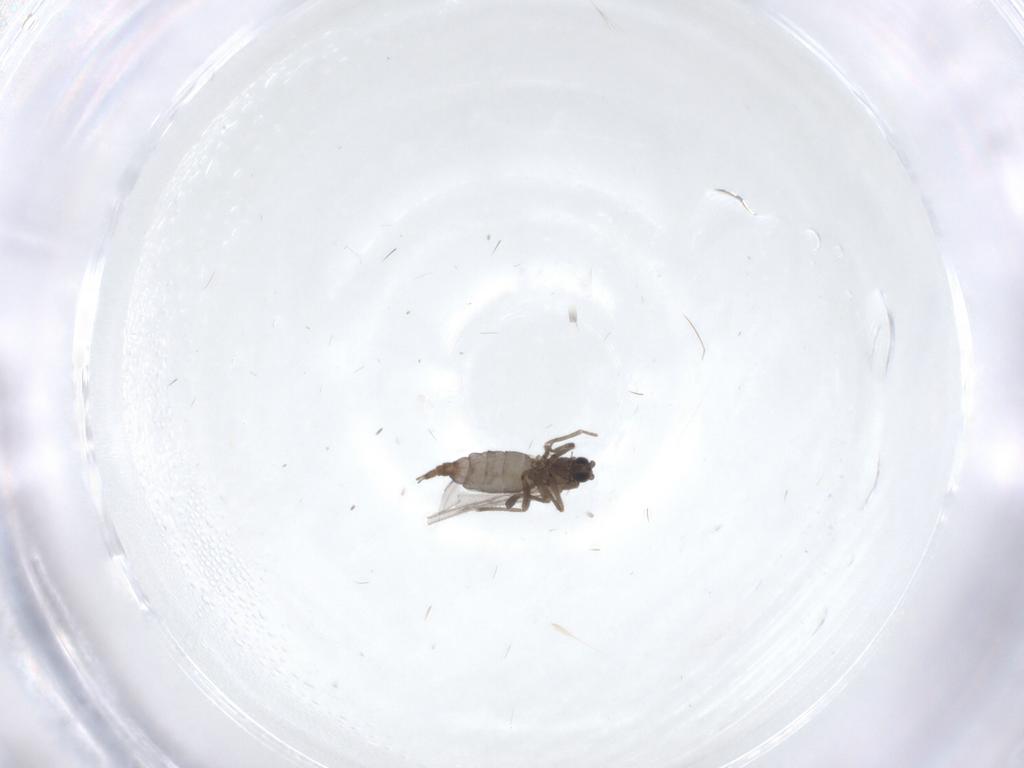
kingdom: Animalia
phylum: Arthropoda
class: Insecta
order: Diptera
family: Sciaridae
